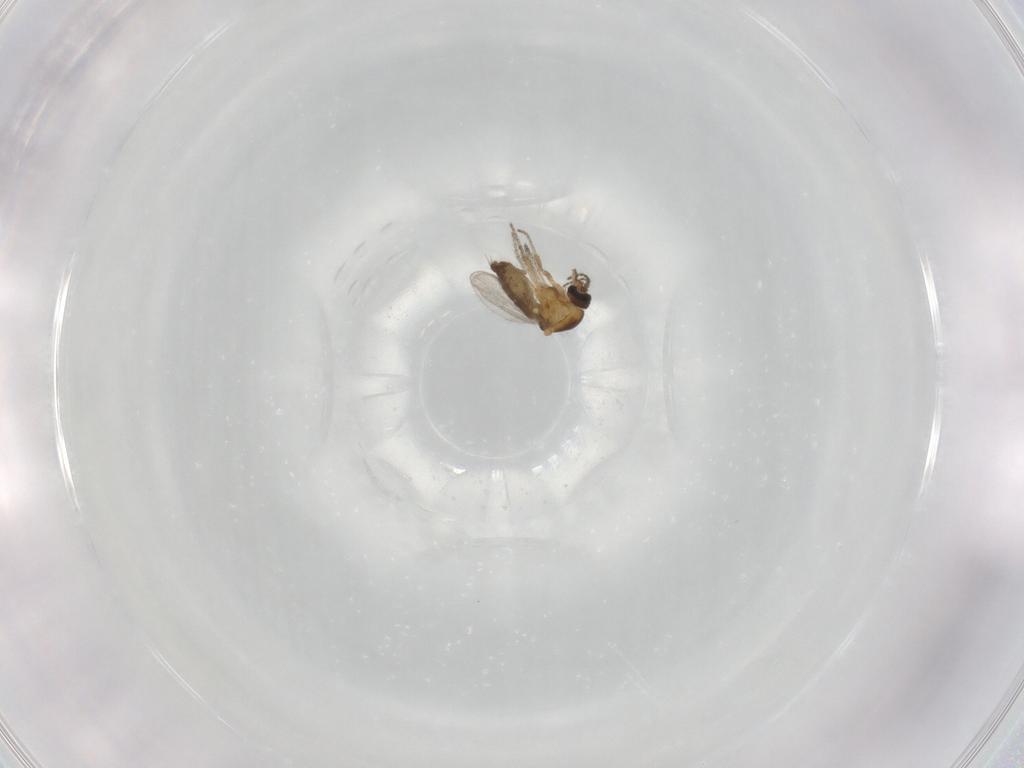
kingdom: Animalia
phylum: Arthropoda
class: Insecta
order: Diptera
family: Ceratopogonidae
